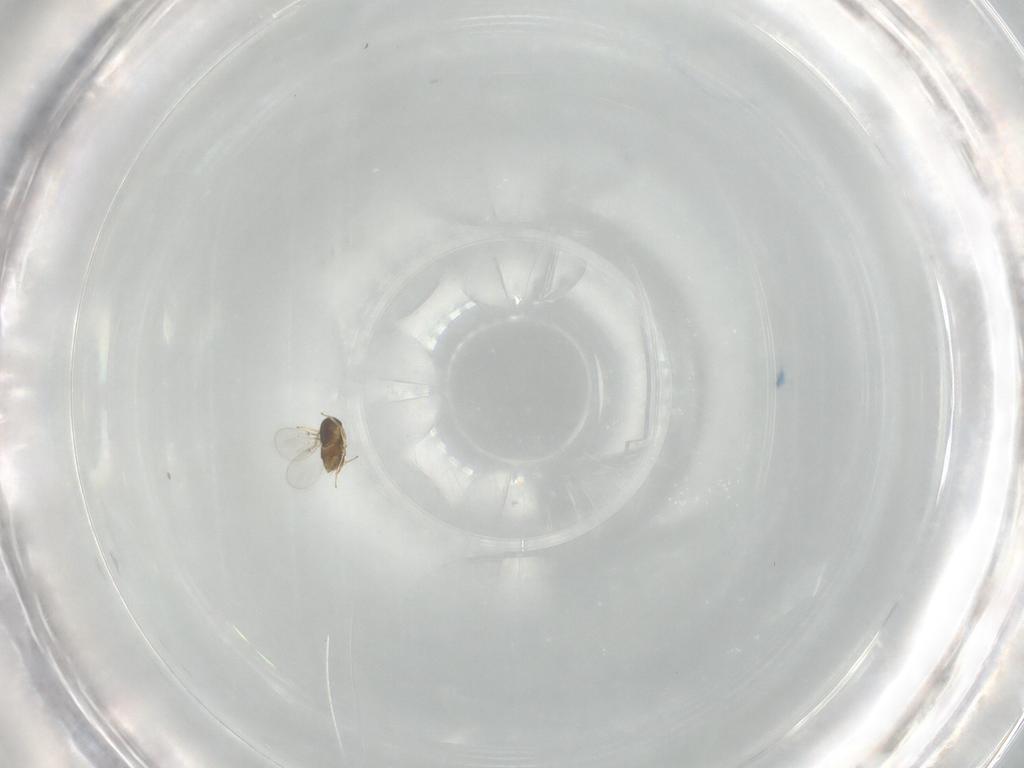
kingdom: Animalia
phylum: Arthropoda
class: Insecta
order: Hymenoptera
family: Encyrtidae
